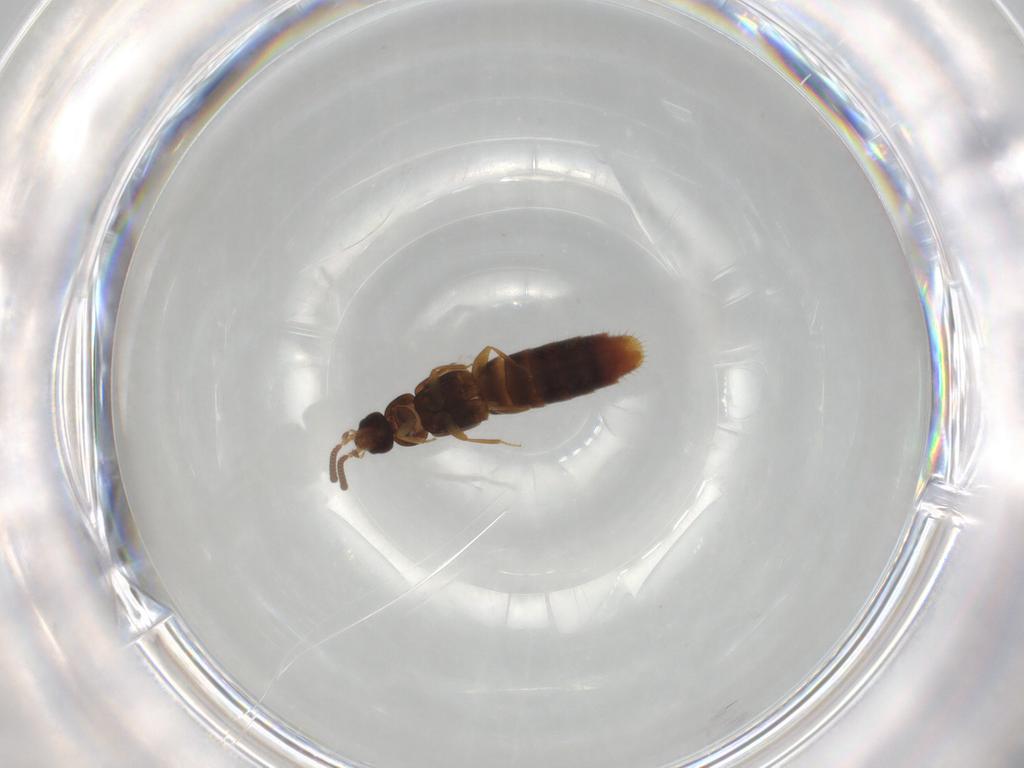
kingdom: Animalia
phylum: Arthropoda
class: Insecta
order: Coleoptera
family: Staphylinidae
